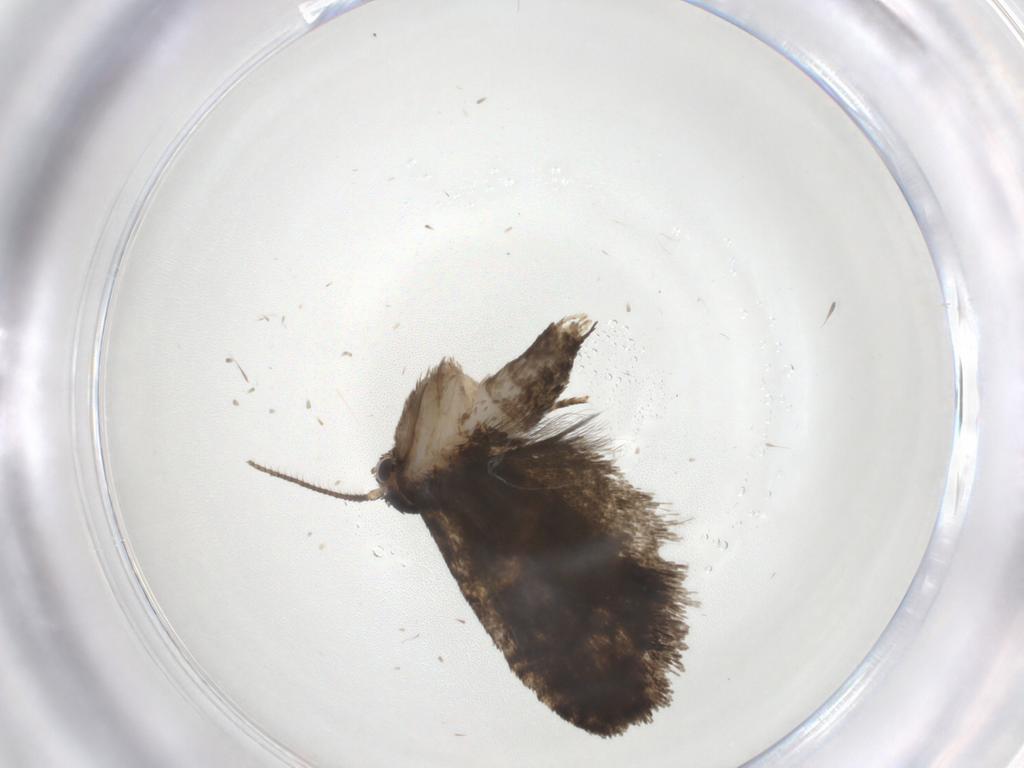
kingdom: Animalia
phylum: Arthropoda
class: Insecta
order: Lepidoptera
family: Tortricidae
